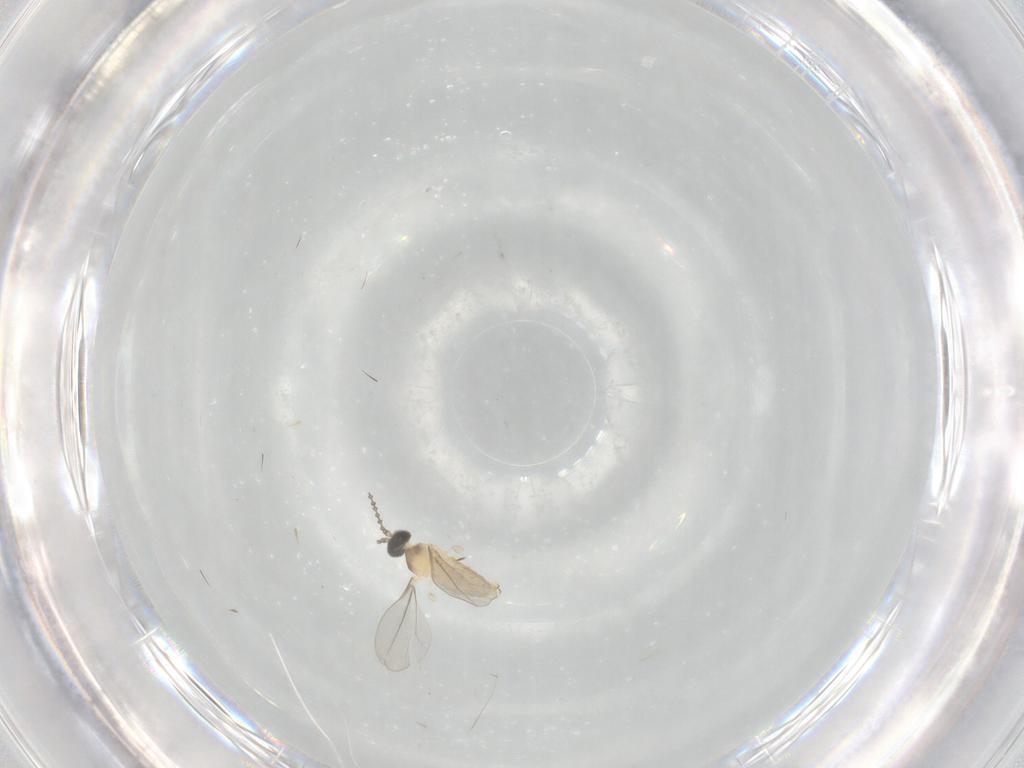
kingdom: Animalia
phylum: Arthropoda
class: Insecta
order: Diptera
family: Cecidomyiidae
